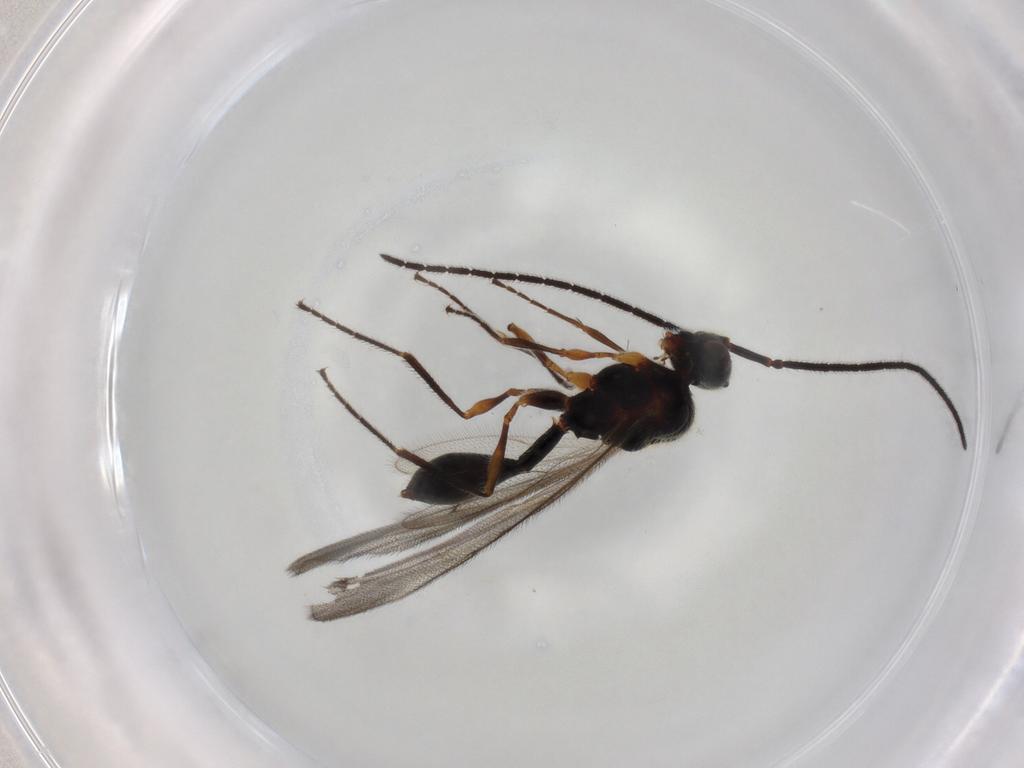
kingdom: Animalia
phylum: Arthropoda
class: Insecta
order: Hymenoptera
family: Diapriidae
